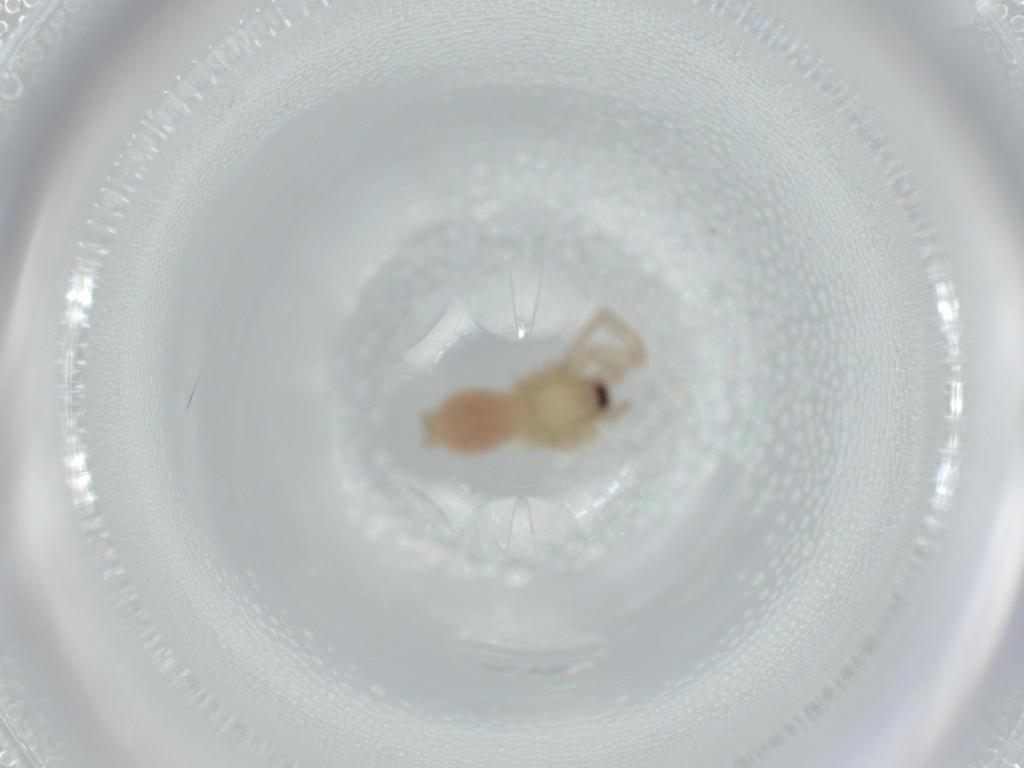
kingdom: Animalia
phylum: Arthropoda
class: Arachnida
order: Araneae
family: Gnaphosidae
